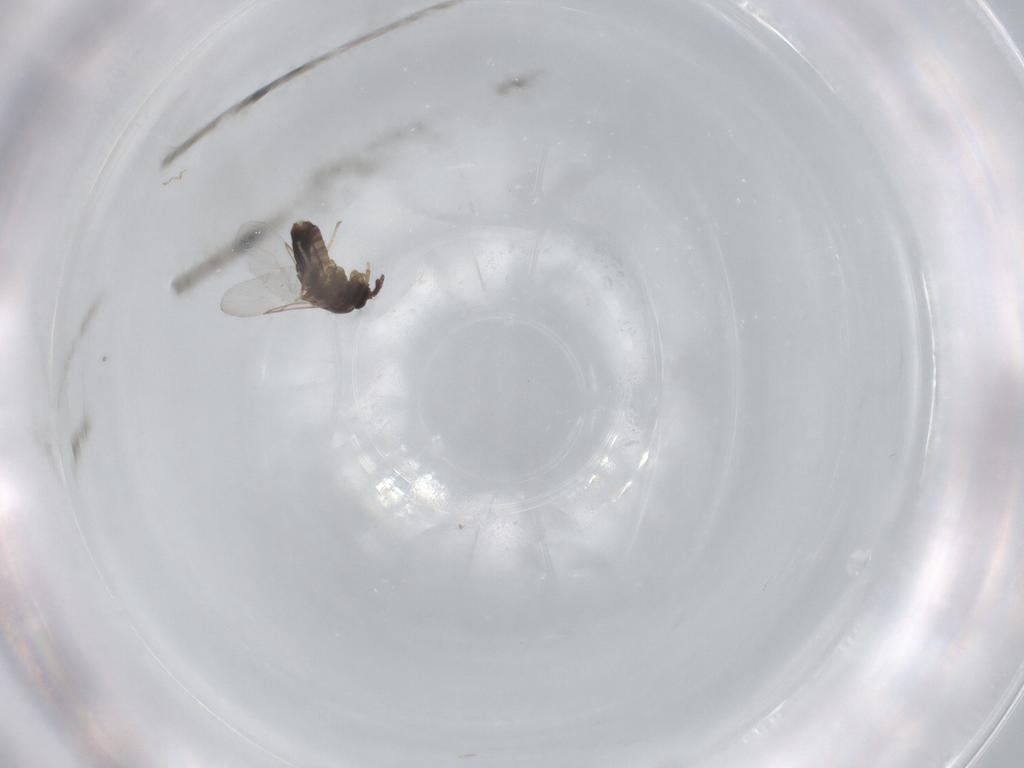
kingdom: Animalia
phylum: Arthropoda
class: Insecta
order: Diptera
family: Scatopsidae
